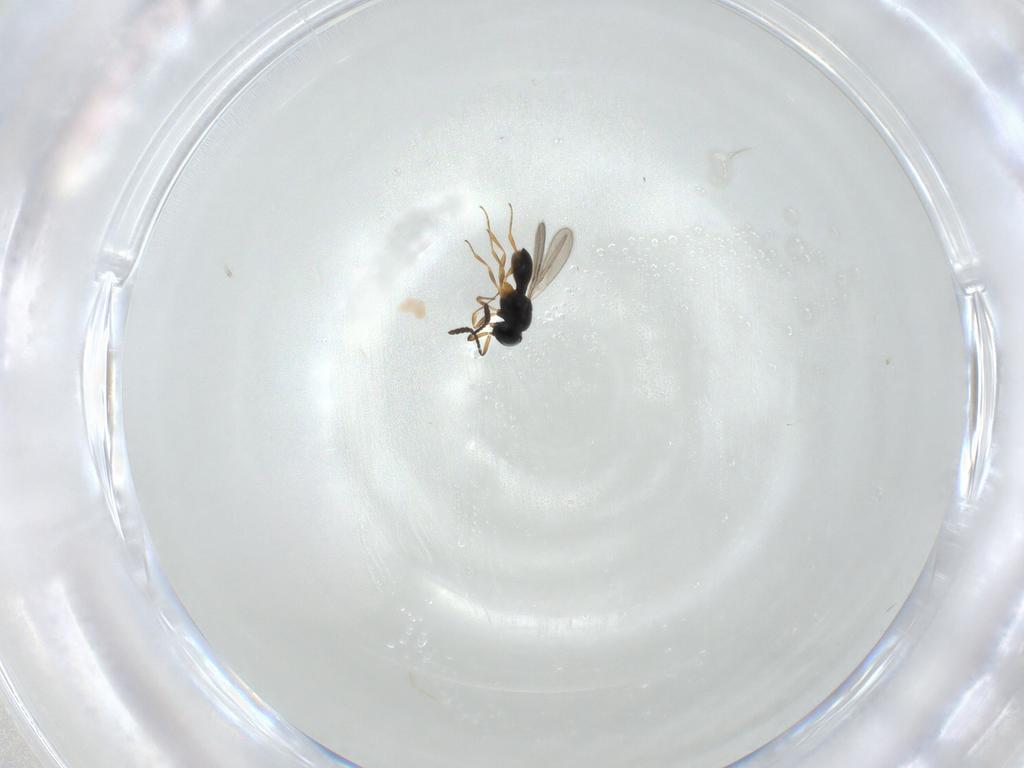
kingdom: Animalia
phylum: Arthropoda
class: Insecta
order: Hymenoptera
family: Scelionidae
